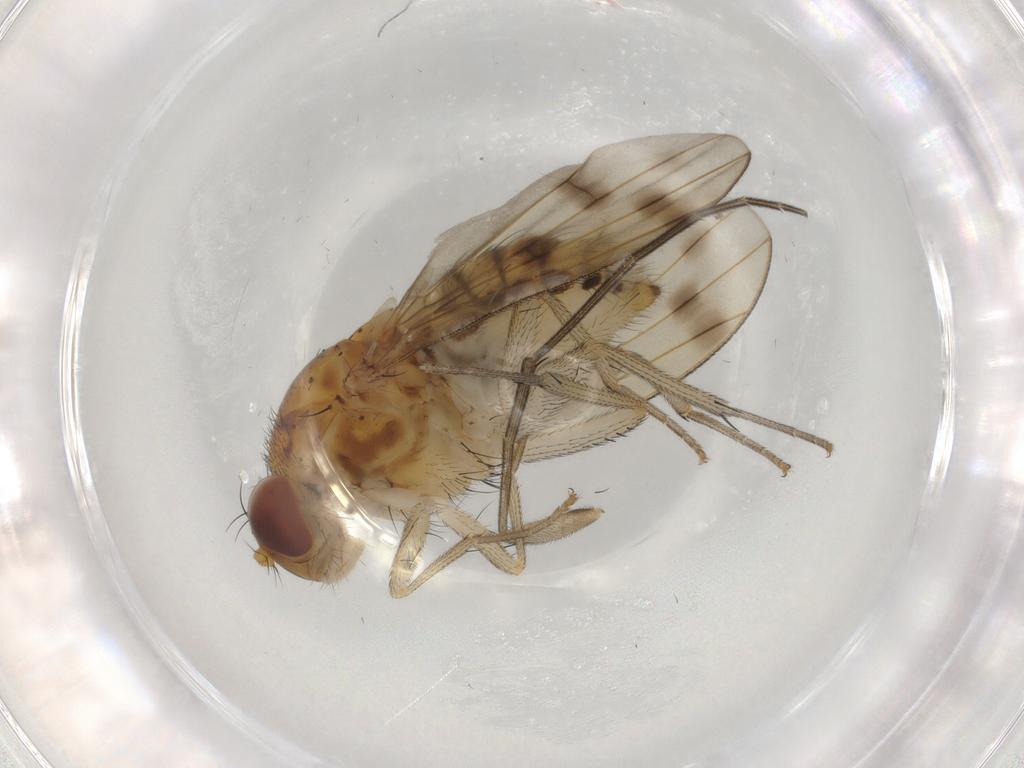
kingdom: Animalia
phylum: Arthropoda
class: Insecta
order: Diptera
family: Keroplatidae
